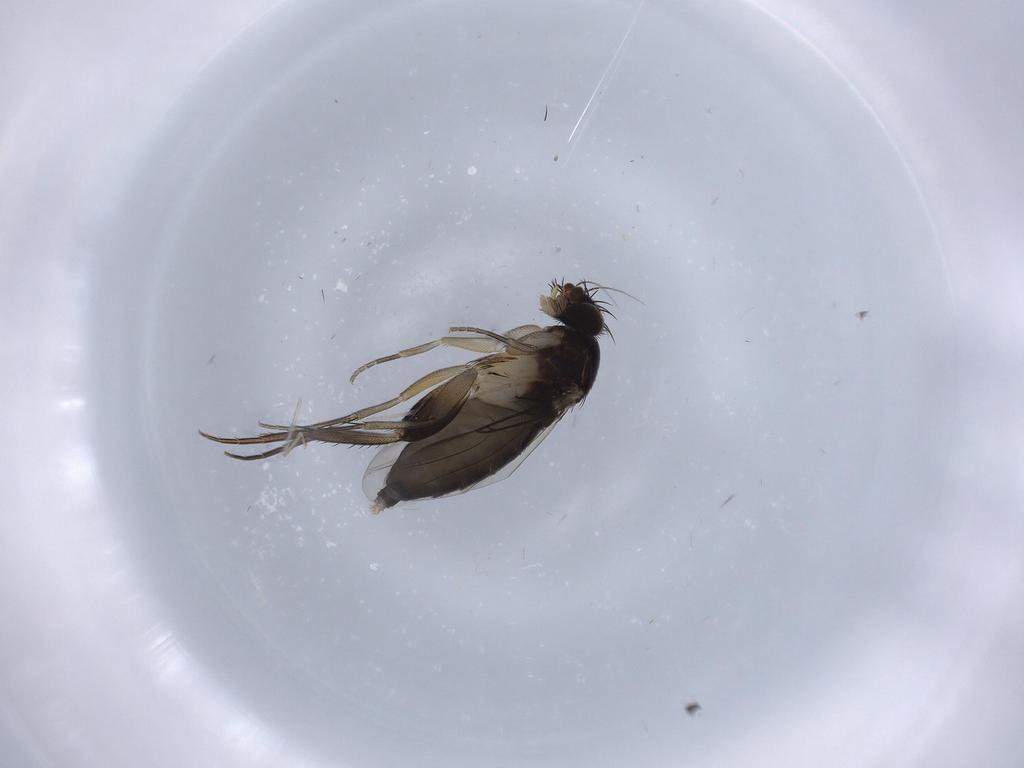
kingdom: Animalia
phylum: Arthropoda
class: Insecta
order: Diptera
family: Phoridae
